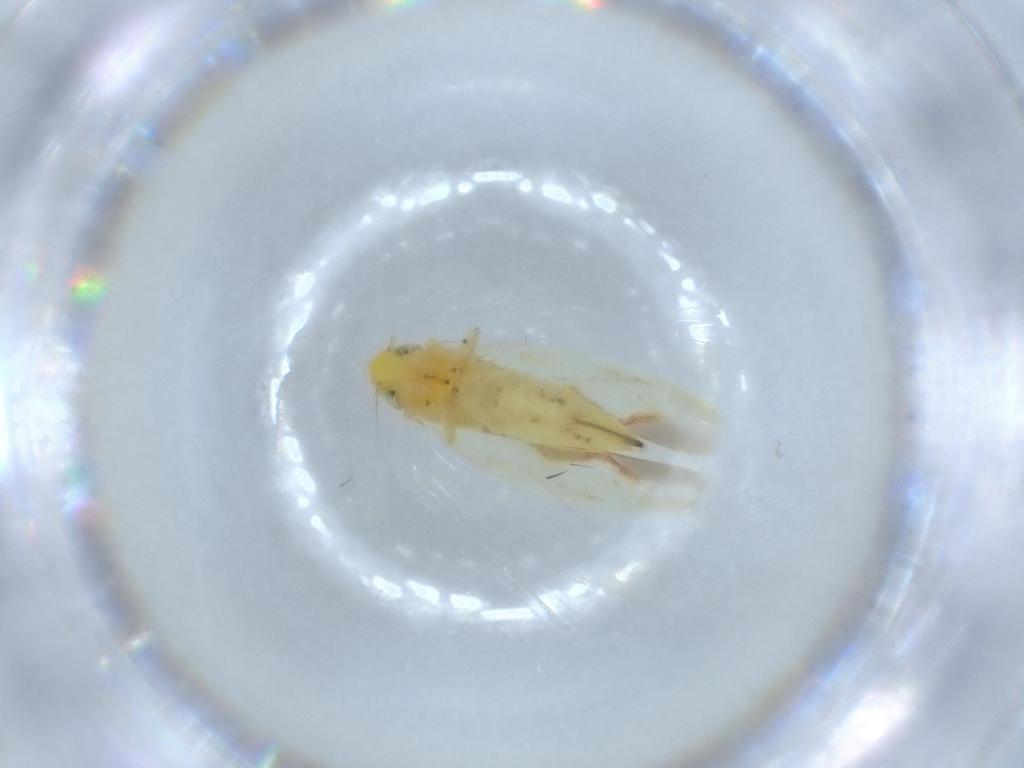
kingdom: Animalia
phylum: Arthropoda
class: Insecta
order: Hemiptera
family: Cicadellidae
